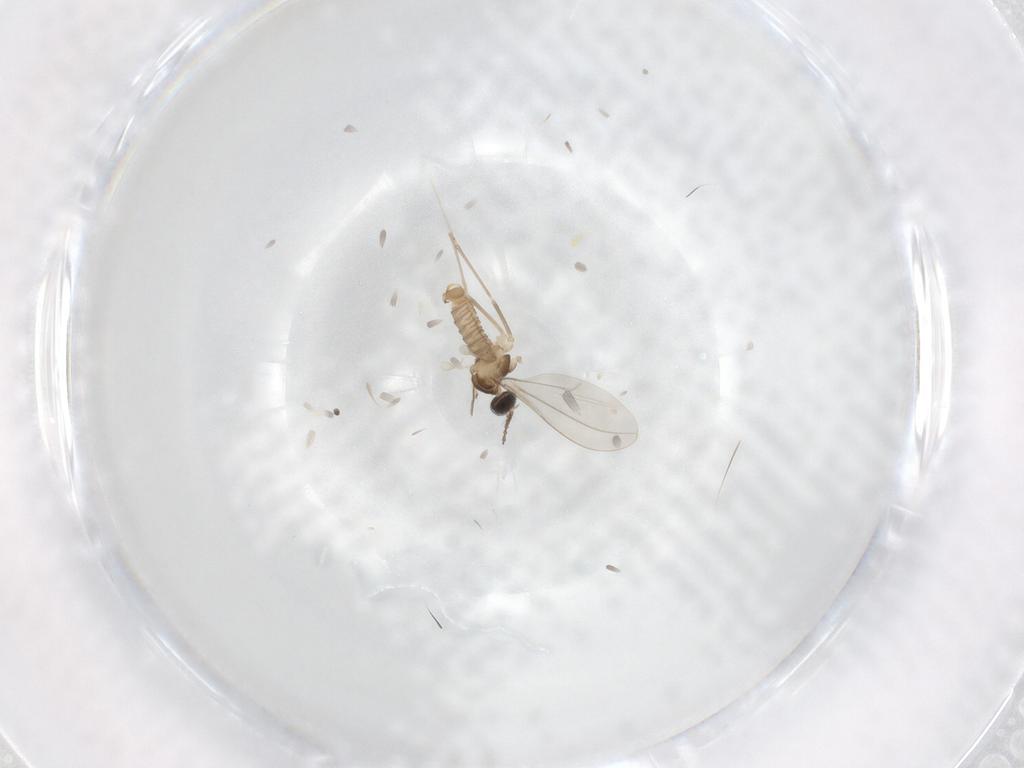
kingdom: Animalia
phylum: Arthropoda
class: Insecta
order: Diptera
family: Cecidomyiidae
